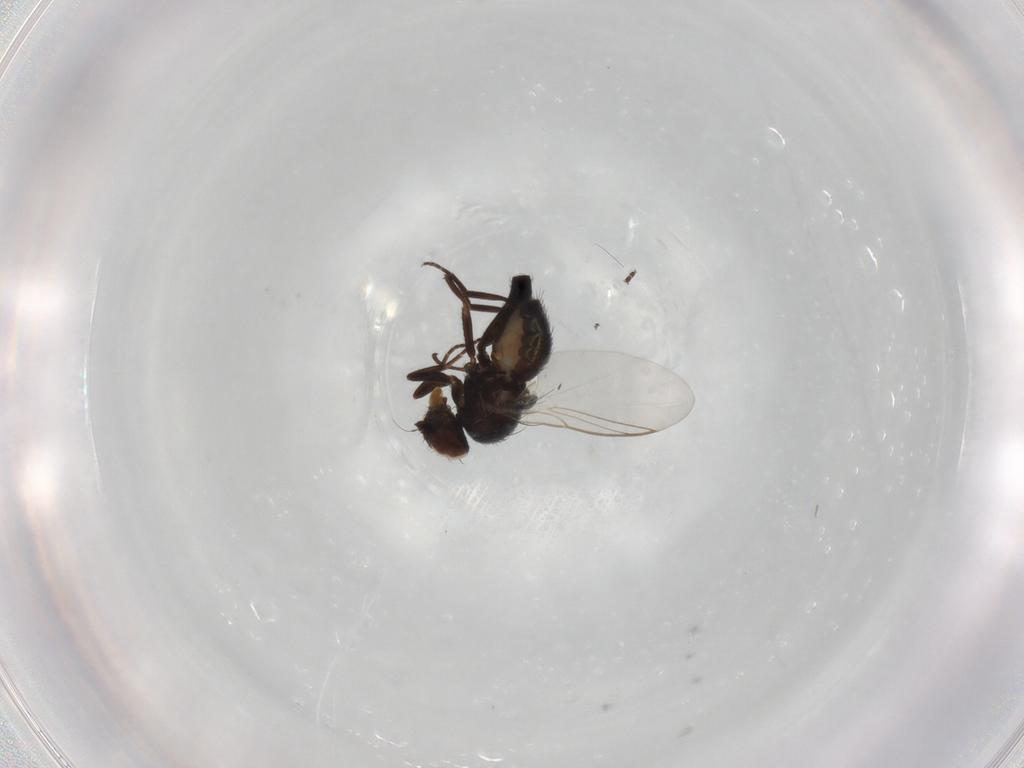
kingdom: Animalia
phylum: Arthropoda
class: Insecta
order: Diptera
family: Agromyzidae
